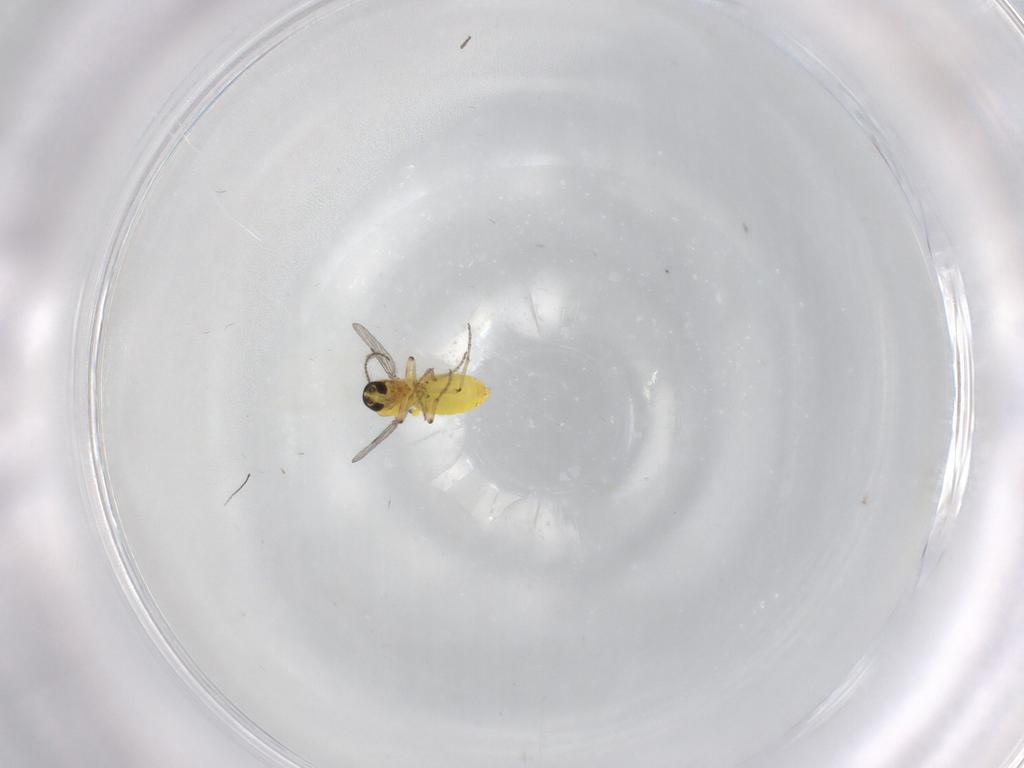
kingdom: Animalia
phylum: Arthropoda
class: Insecta
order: Diptera
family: Ceratopogonidae
